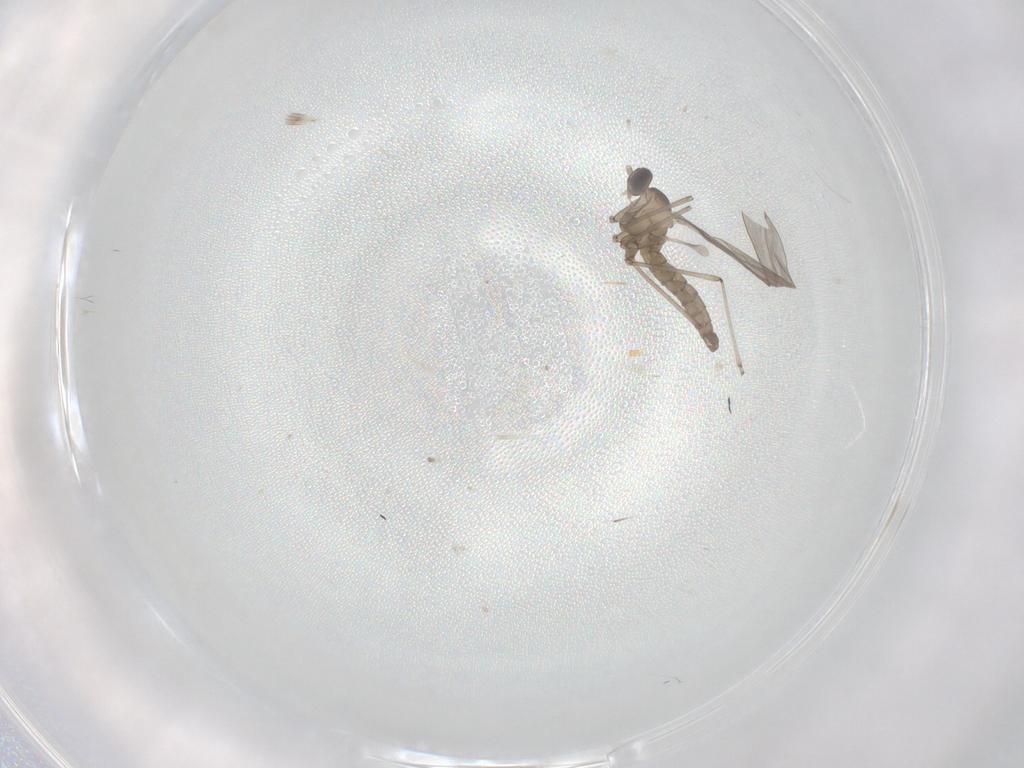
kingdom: Animalia
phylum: Arthropoda
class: Insecta
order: Diptera
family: Cecidomyiidae
